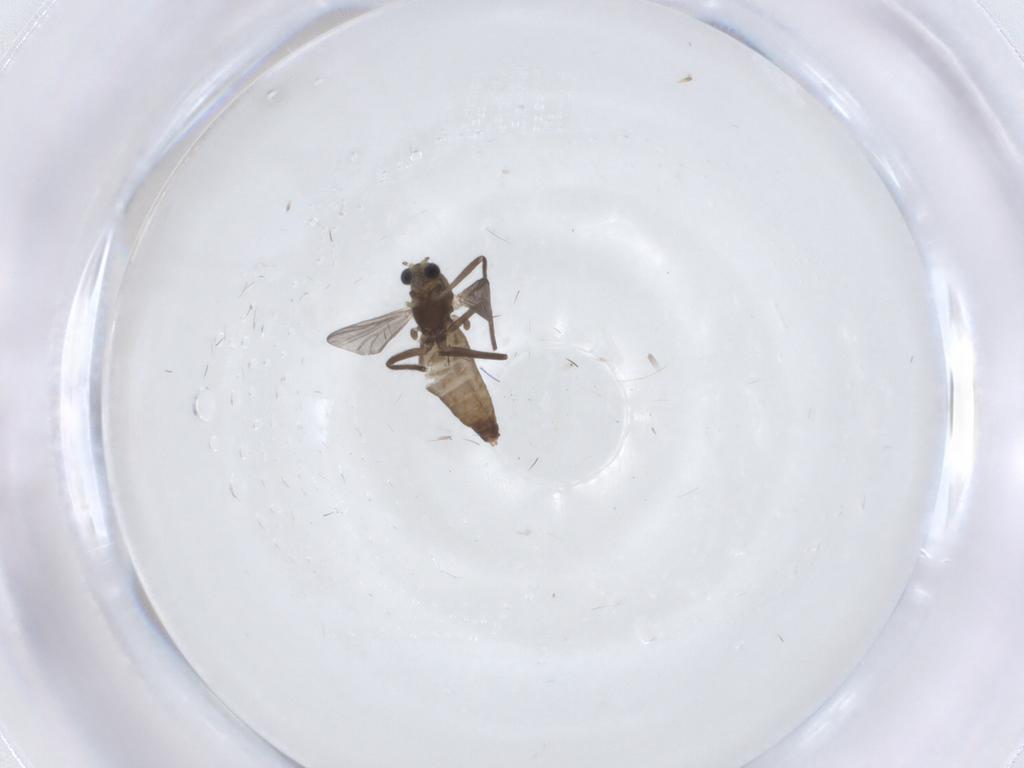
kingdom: Animalia
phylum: Arthropoda
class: Insecta
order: Diptera
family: Chironomidae
